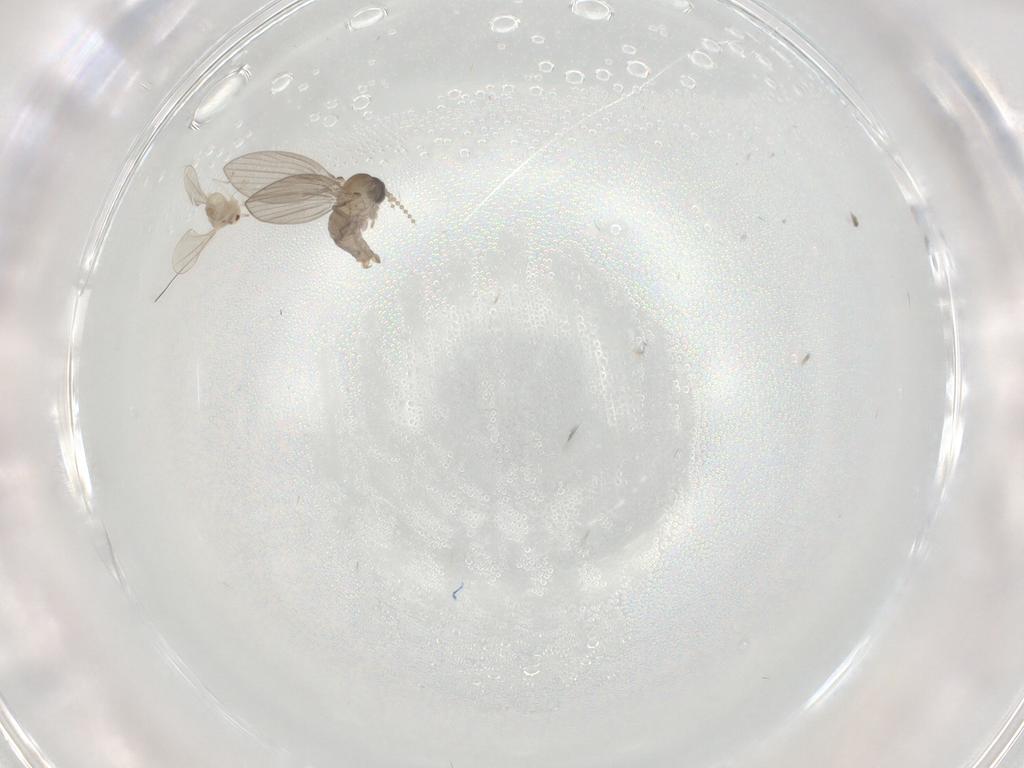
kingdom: Animalia
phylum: Arthropoda
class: Insecta
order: Diptera
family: Cecidomyiidae
